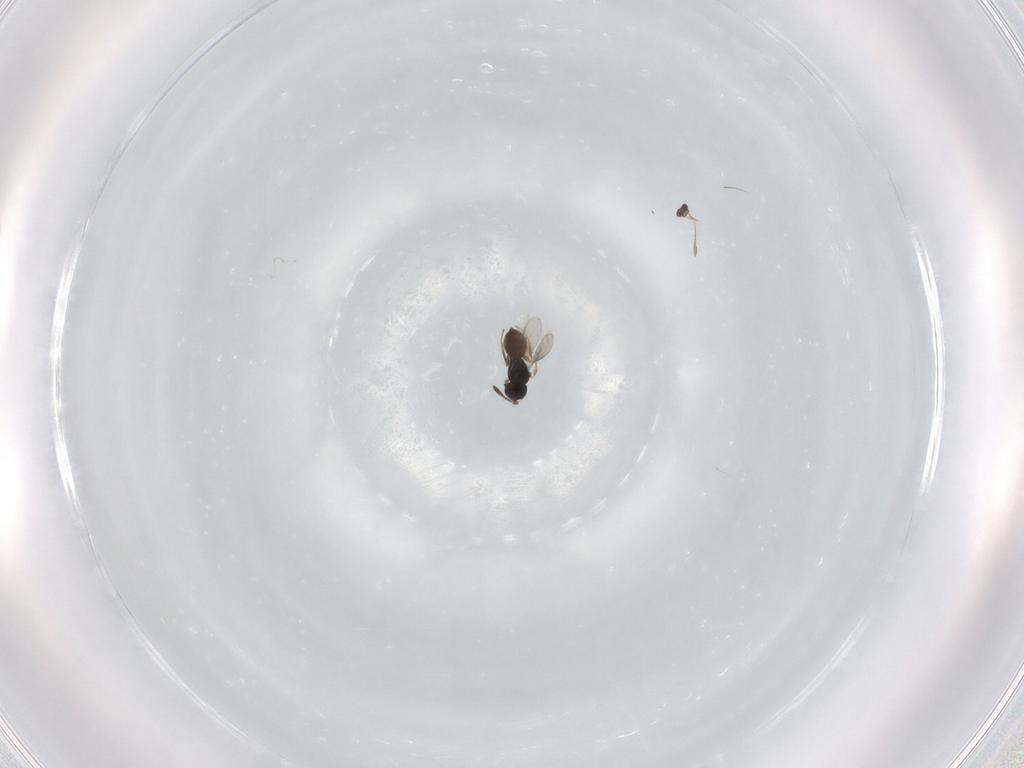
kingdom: Animalia
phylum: Arthropoda
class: Insecta
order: Hymenoptera
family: Scelionidae
